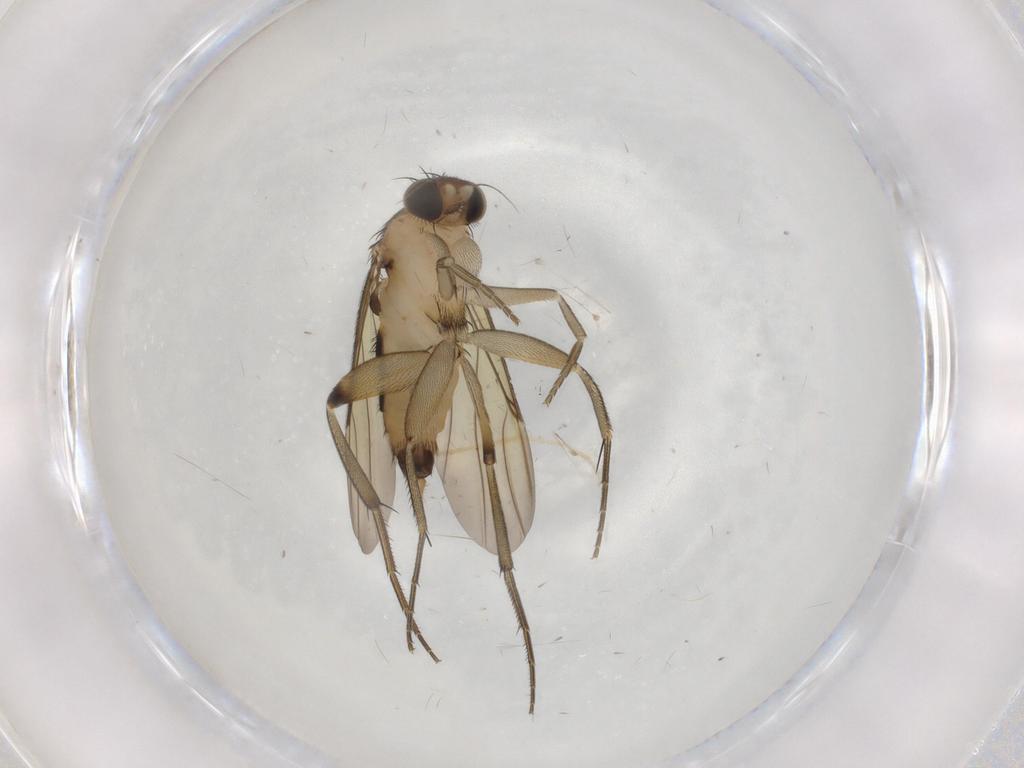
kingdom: Animalia
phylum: Arthropoda
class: Insecta
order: Diptera
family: Chironomidae
